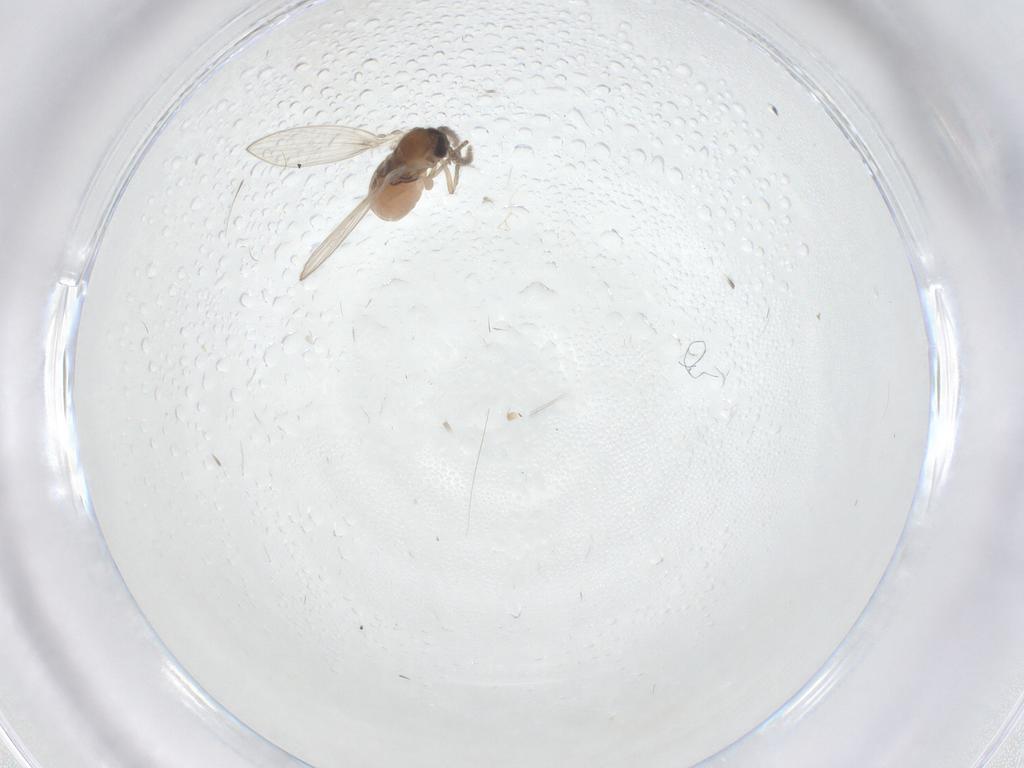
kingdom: Animalia
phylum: Arthropoda
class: Insecta
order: Diptera
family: Psychodidae
